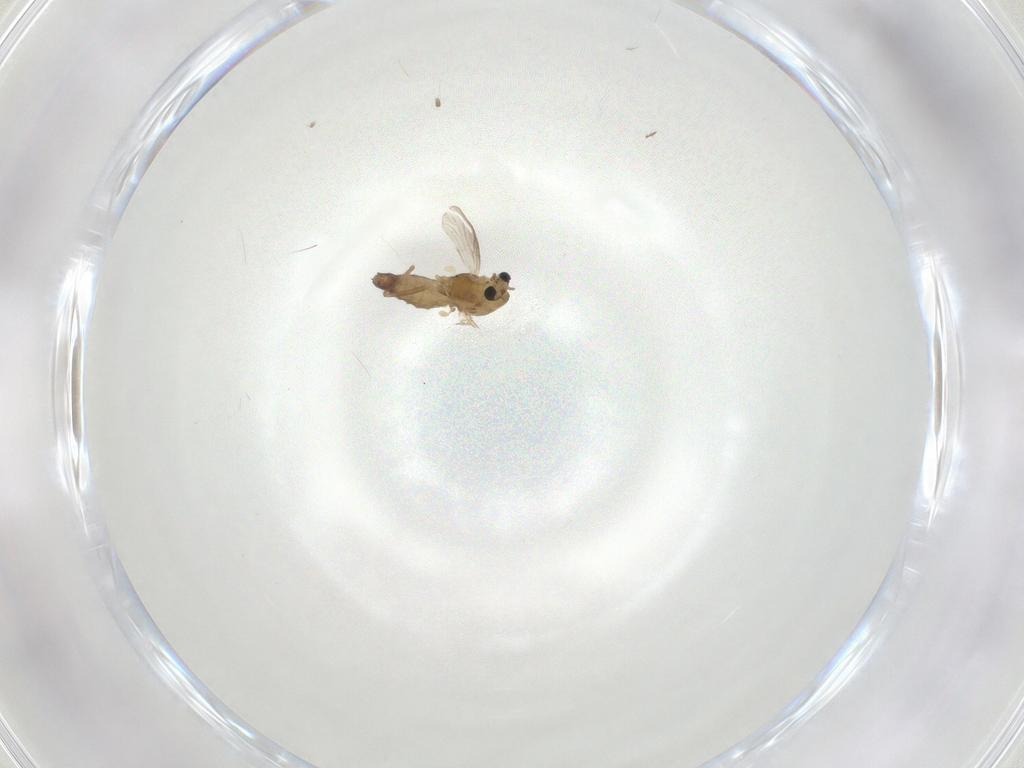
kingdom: Animalia
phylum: Arthropoda
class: Insecta
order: Diptera
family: Chironomidae
